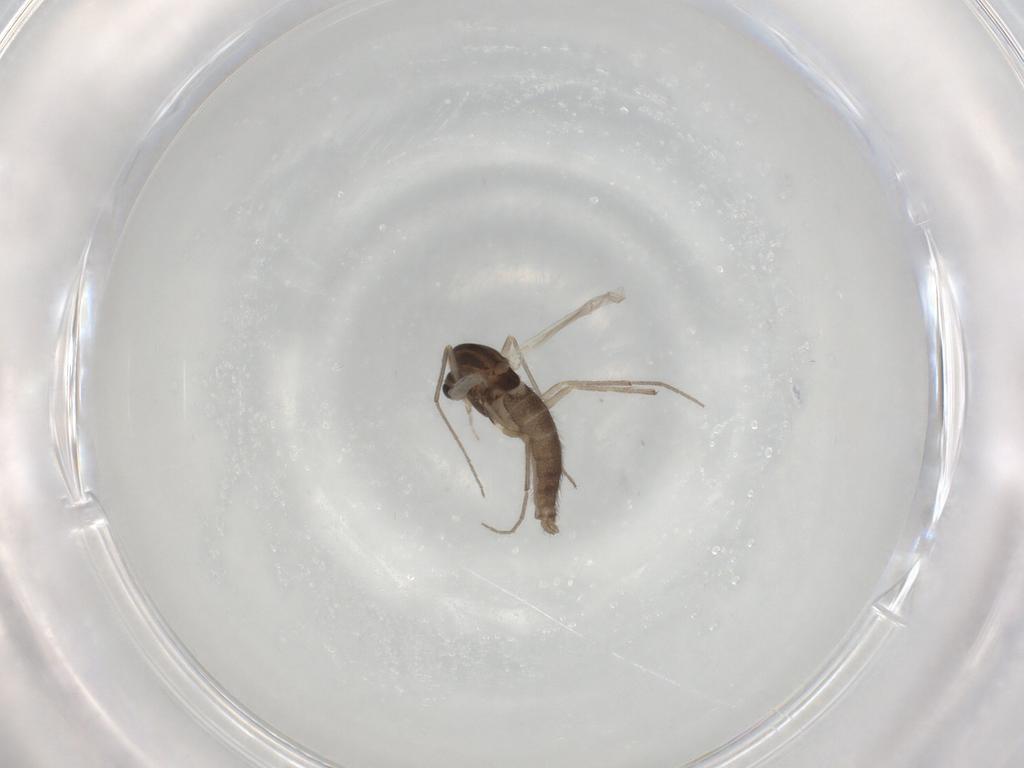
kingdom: Animalia
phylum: Arthropoda
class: Insecta
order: Diptera
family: Chironomidae
